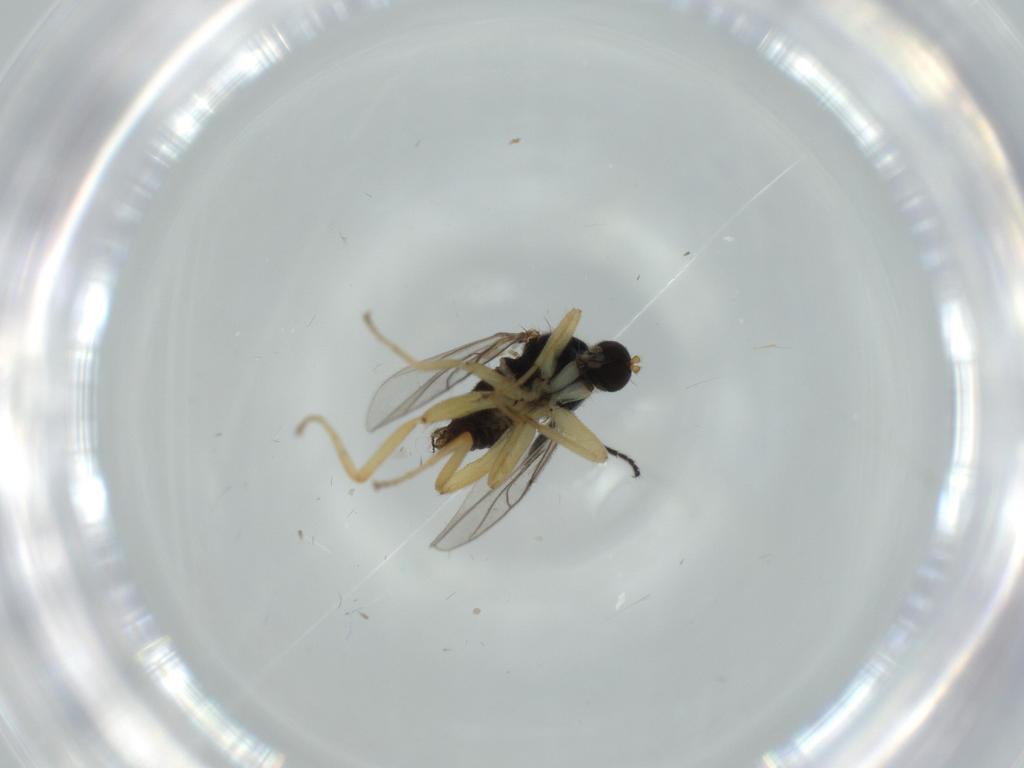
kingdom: Animalia
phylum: Arthropoda
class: Insecta
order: Diptera
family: Hybotidae
